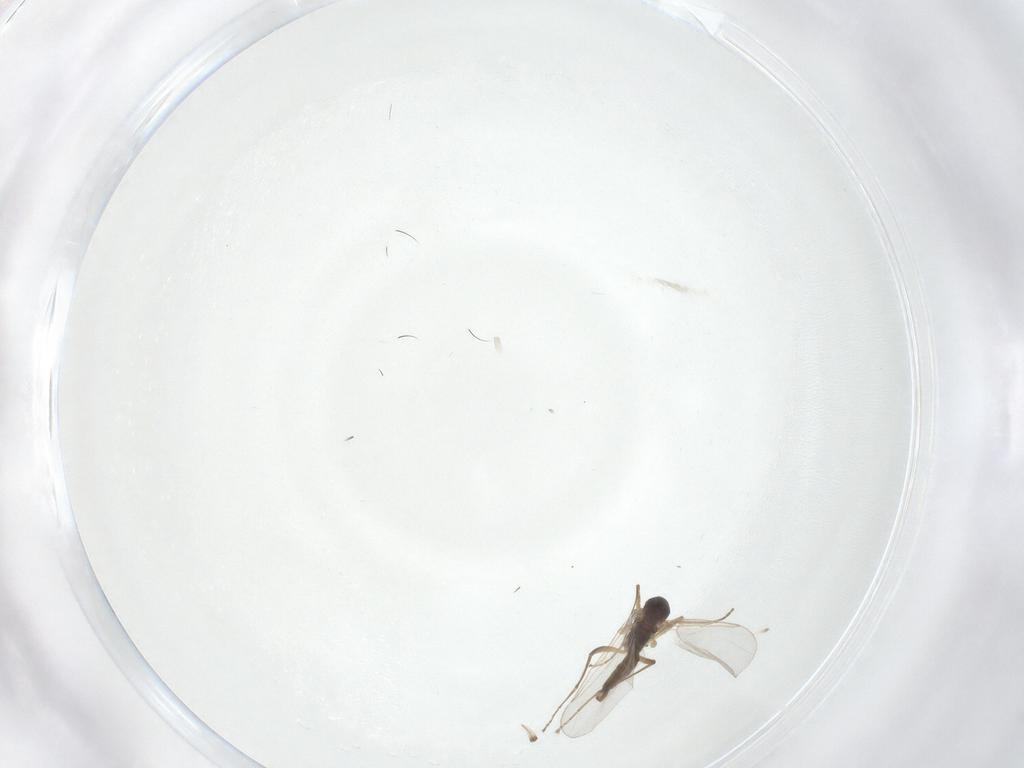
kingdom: Animalia
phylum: Arthropoda
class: Insecta
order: Diptera
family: Cecidomyiidae
